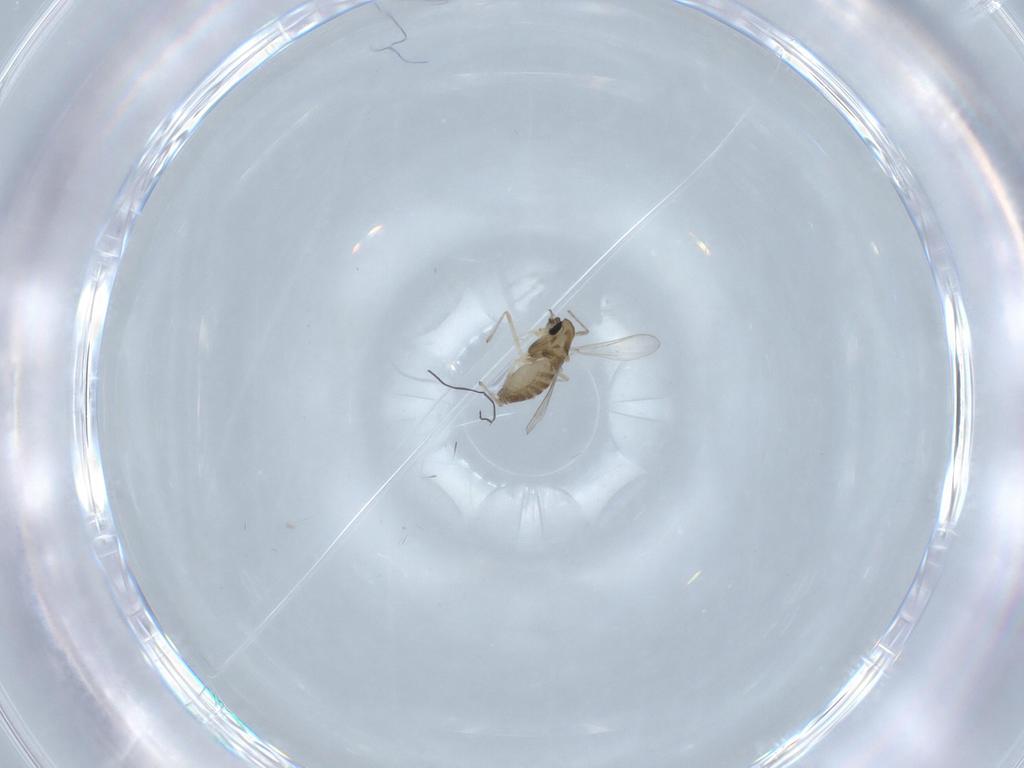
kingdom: Animalia
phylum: Arthropoda
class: Insecta
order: Diptera
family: Chironomidae
